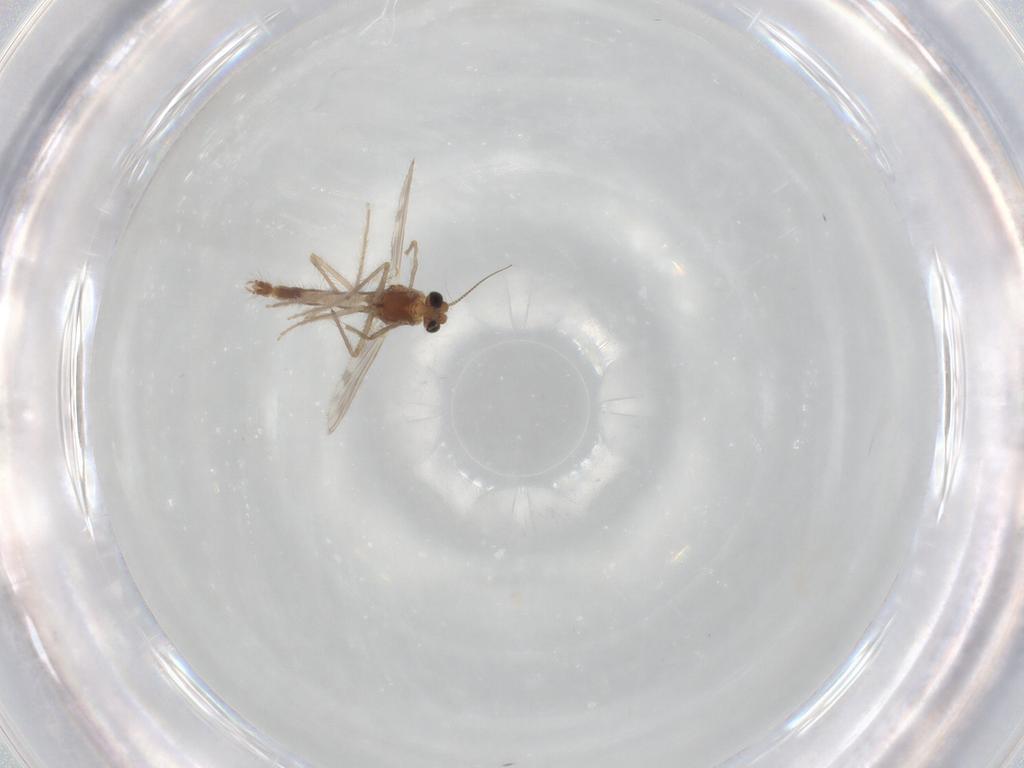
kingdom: Animalia
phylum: Arthropoda
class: Insecta
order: Diptera
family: Chironomidae
